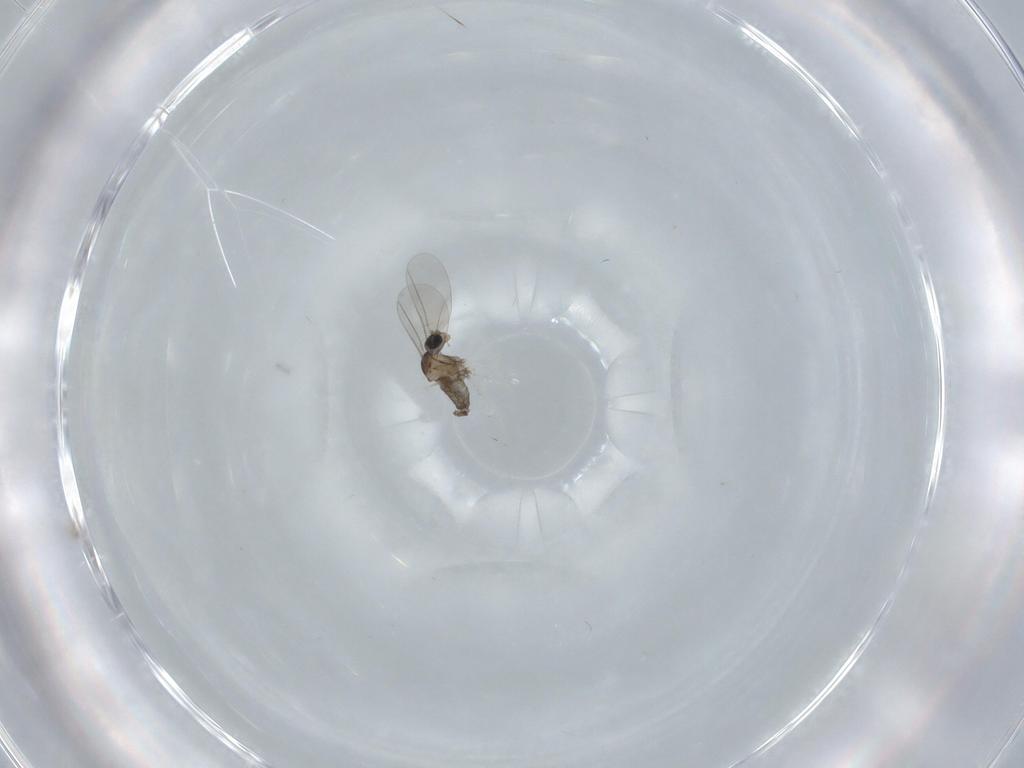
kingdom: Animalia
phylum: Arthropoda
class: Insecta
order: Diptera
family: Cecidomyiidae
